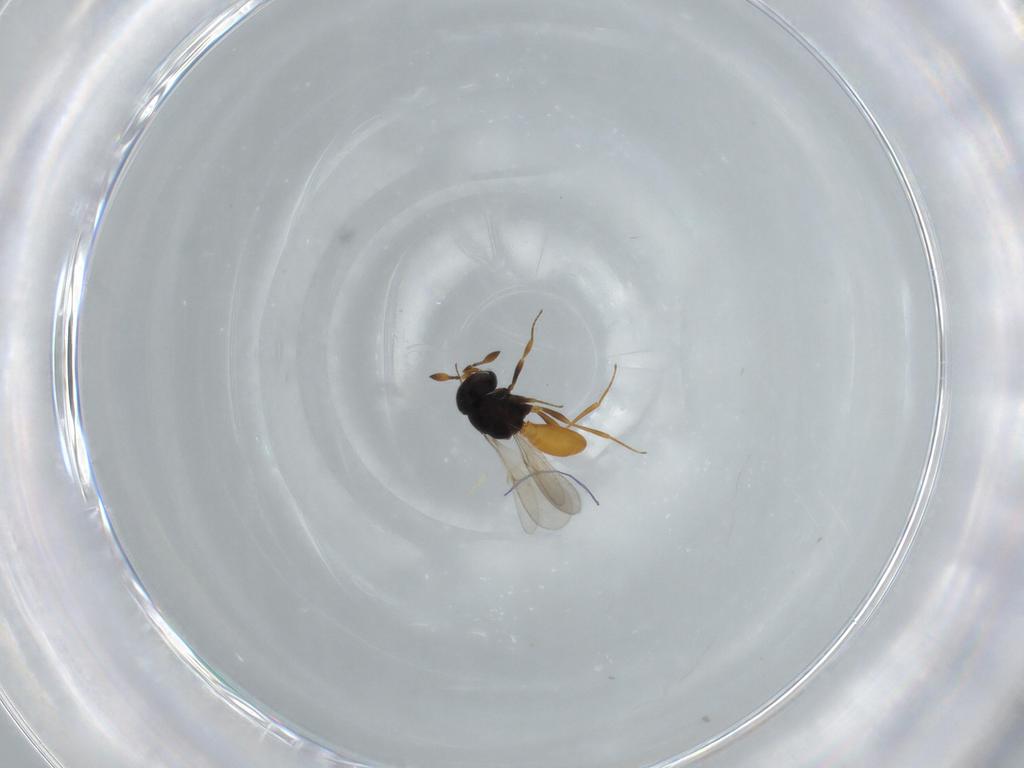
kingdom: Animalia
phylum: Arthropoda
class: Insecta
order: Hymenoptera
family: Scelionidae
